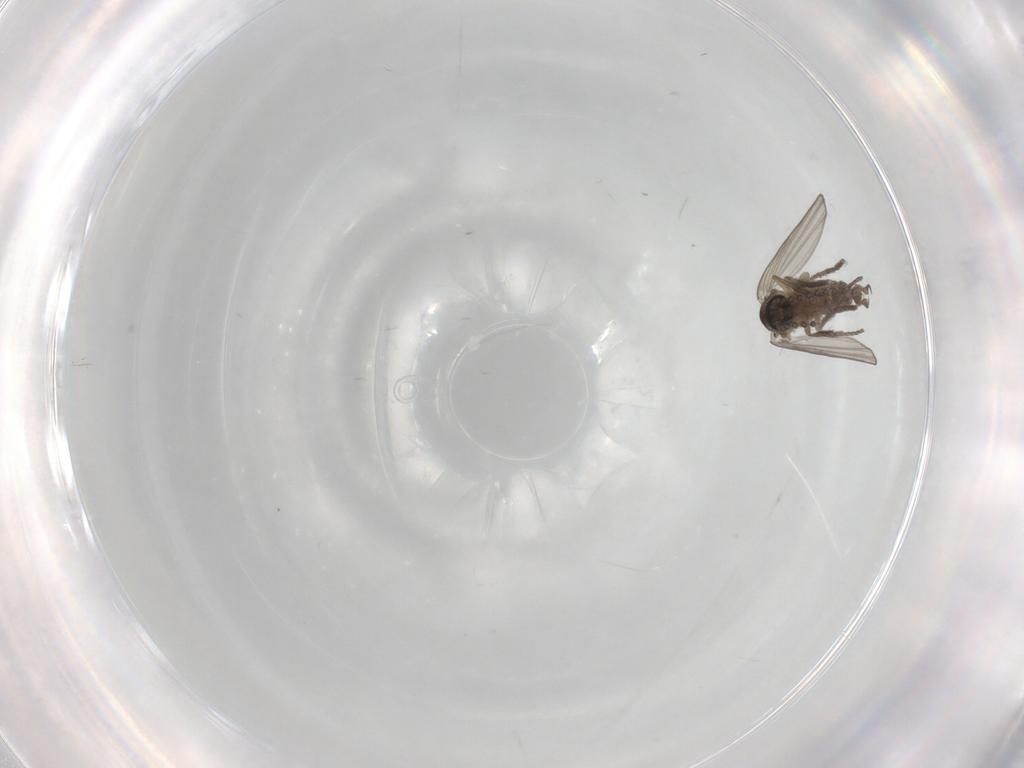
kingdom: Animalia
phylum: Arthropoda
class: Insecta
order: Diptera
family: Psychodidae
